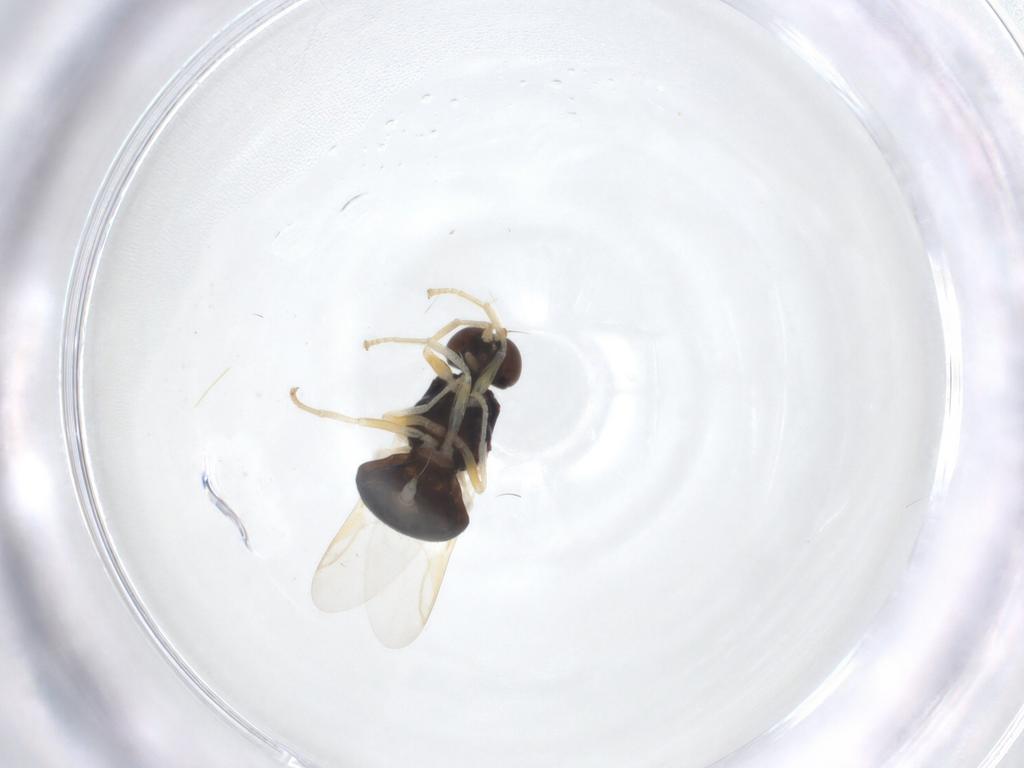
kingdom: Animalia
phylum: Arthropoda
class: Insecta
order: Diptera
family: Stratiomyidae
